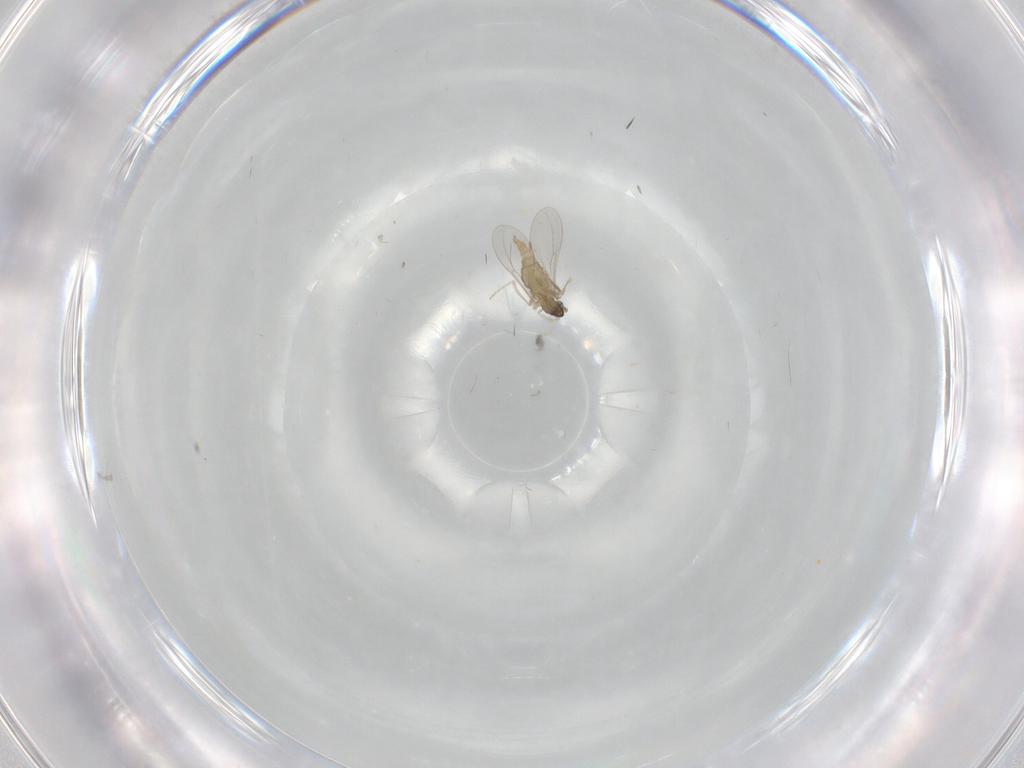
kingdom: Animalia
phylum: Arthropoda
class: Insecta
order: Diptera
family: Cecidomyiidae
